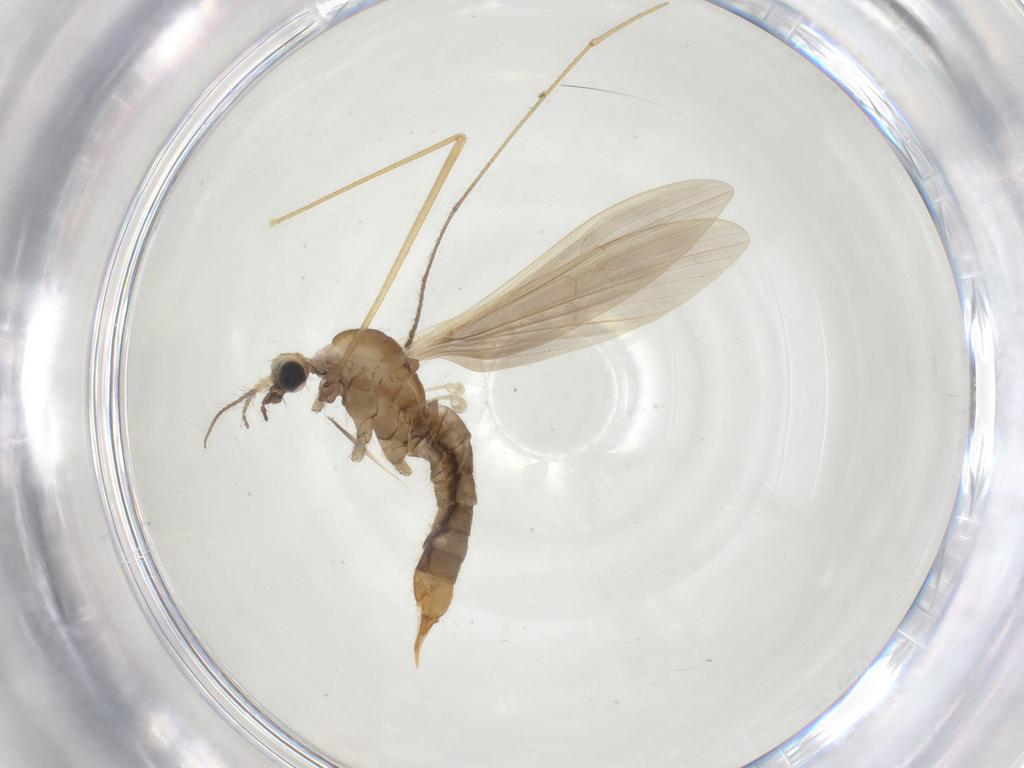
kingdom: Animalia
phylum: Arthropoda
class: Insecta
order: Diptera
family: Limoniidae
